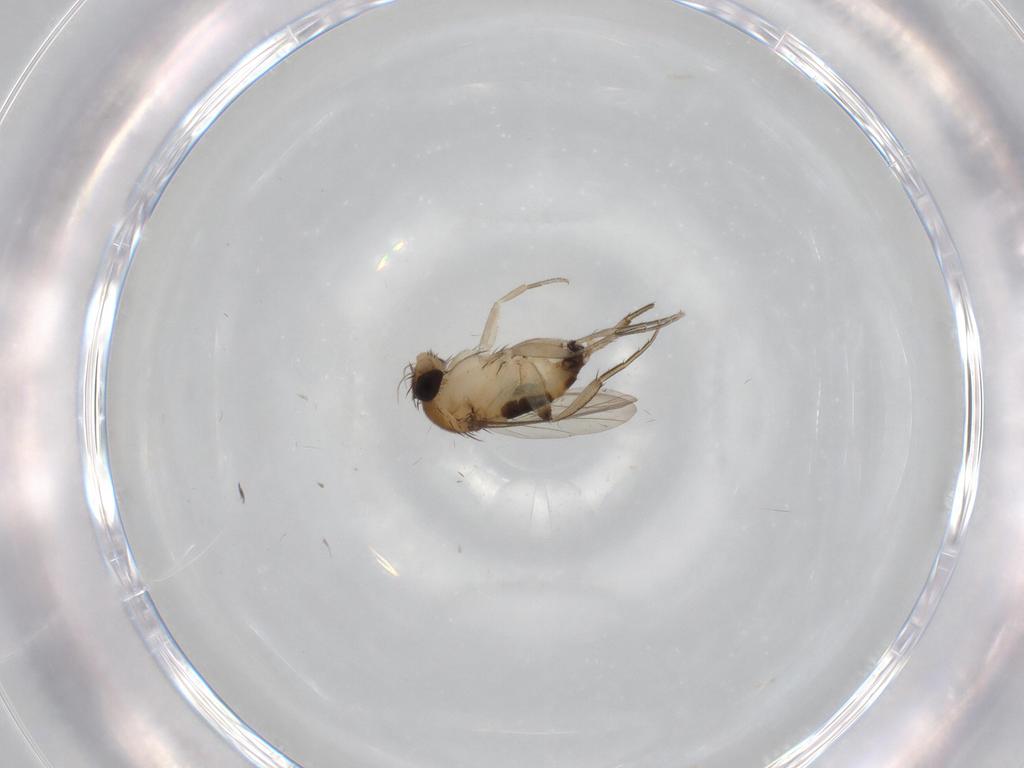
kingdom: Animalia
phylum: Arthropoda
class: Insecta
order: Diptera
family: Phoridae
